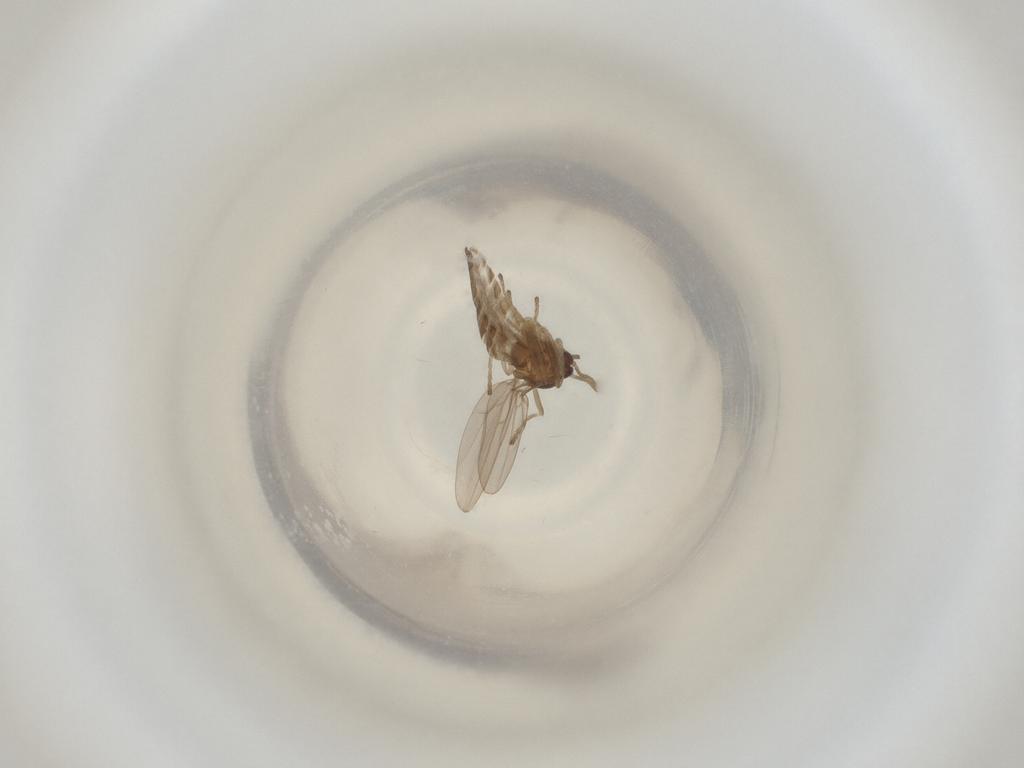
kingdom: Animalia
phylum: Arthropoda
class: Insecta
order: Diptera
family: Cecidomyiidae
